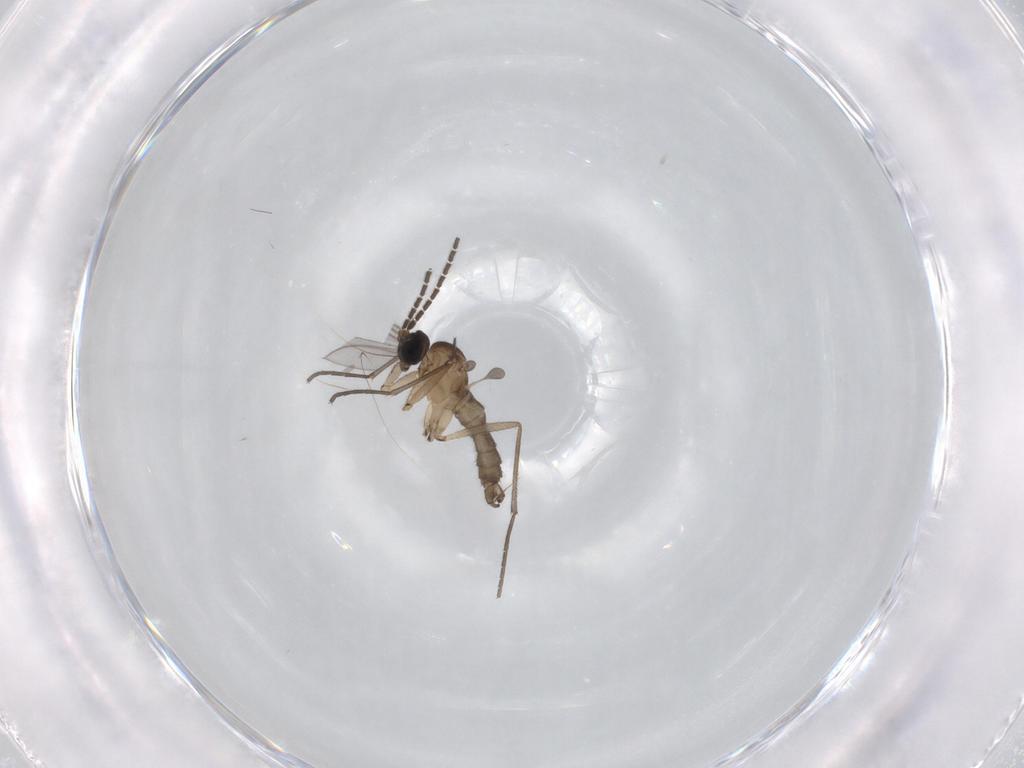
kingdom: Animalia
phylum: Arthropoda
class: Insecta
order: Diptera
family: Sciaridae
